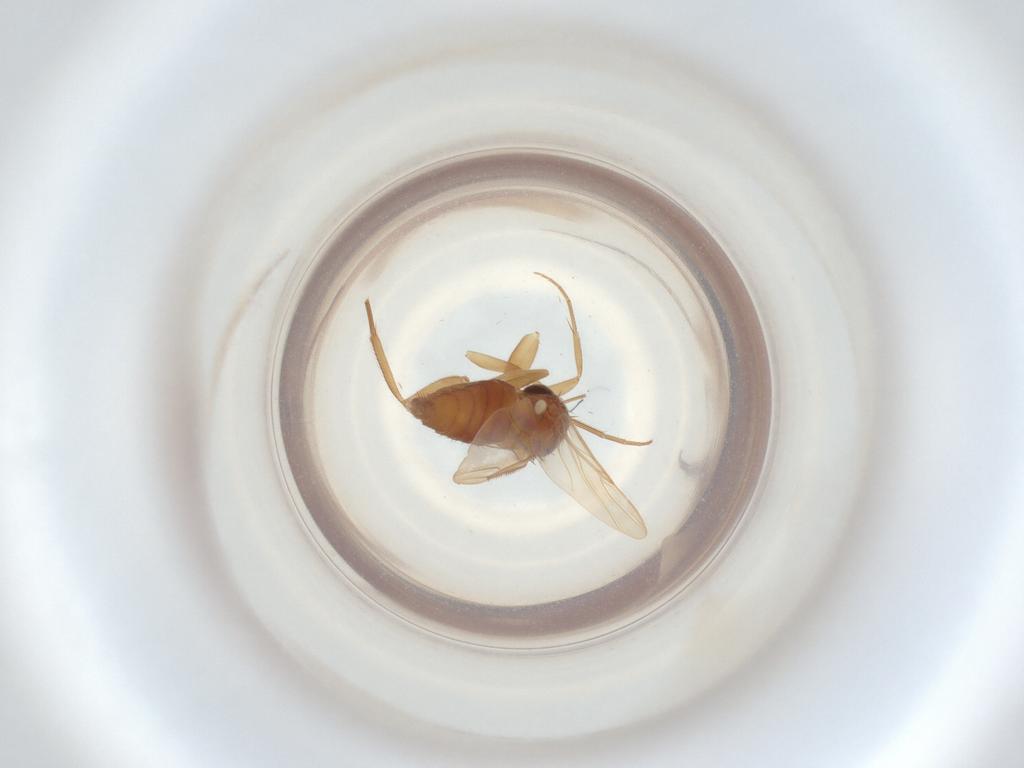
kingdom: Animalia
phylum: Arthropoda
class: Insecta
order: Diptera
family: Phoridae
